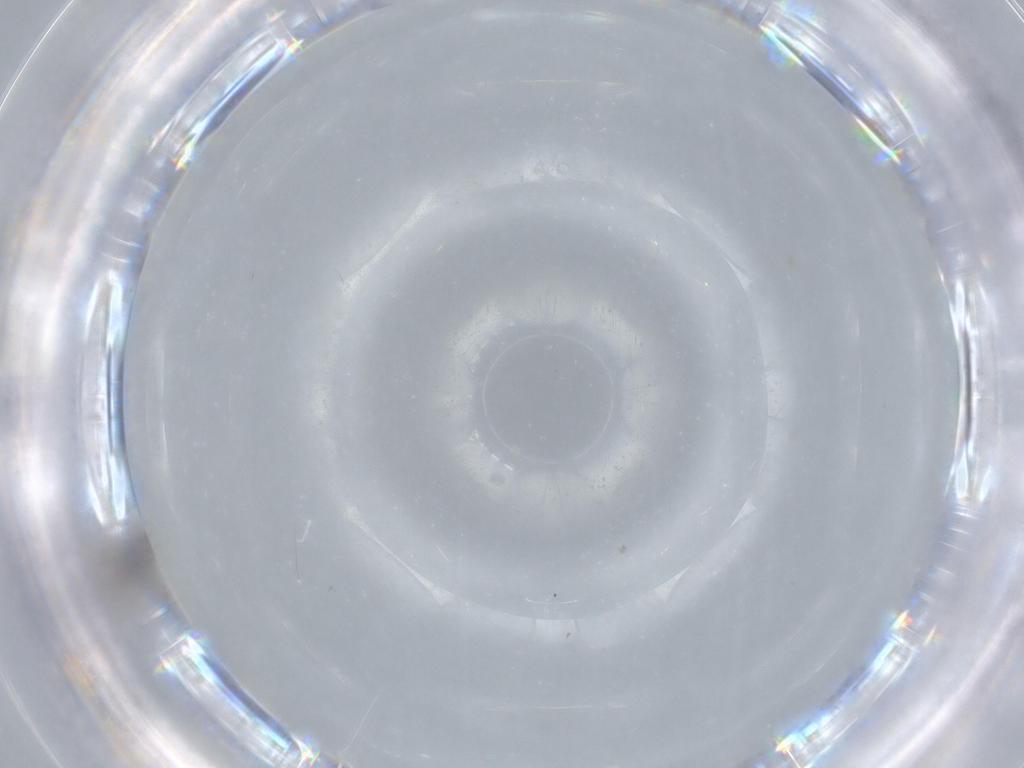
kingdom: Animalia
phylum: Arthropoda
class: Insecta
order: Diptera
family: Cecidomyiidae
